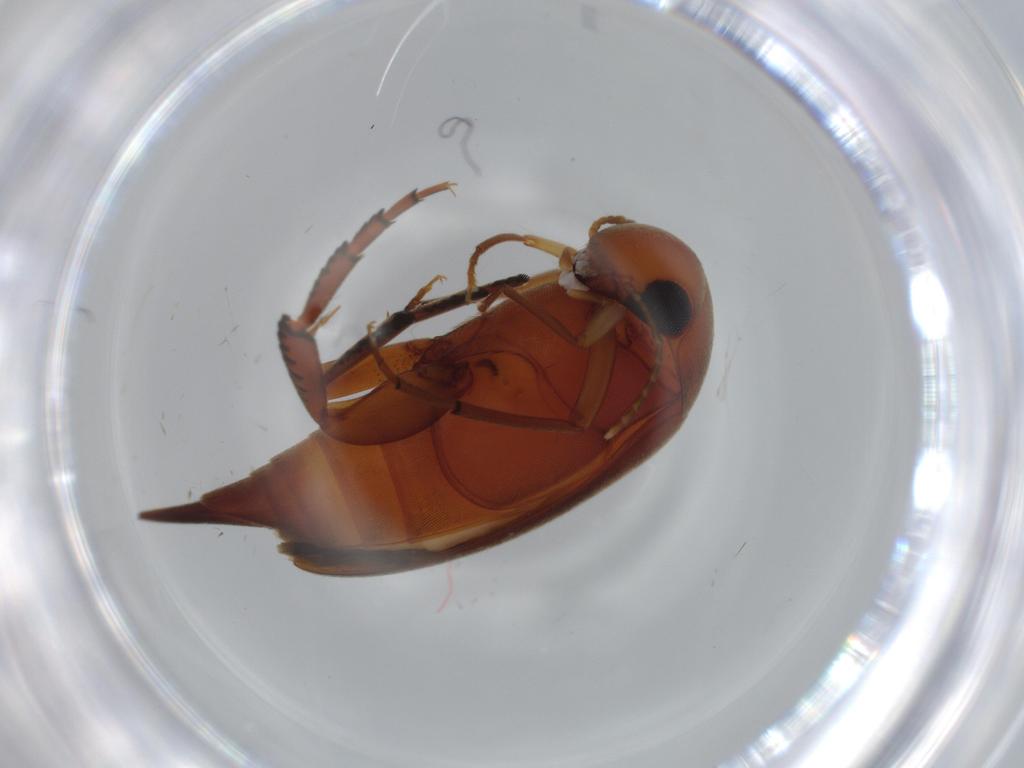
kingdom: Animalia
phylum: Arthropoda
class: Insecta
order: Coleoptera
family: Mordellidae
